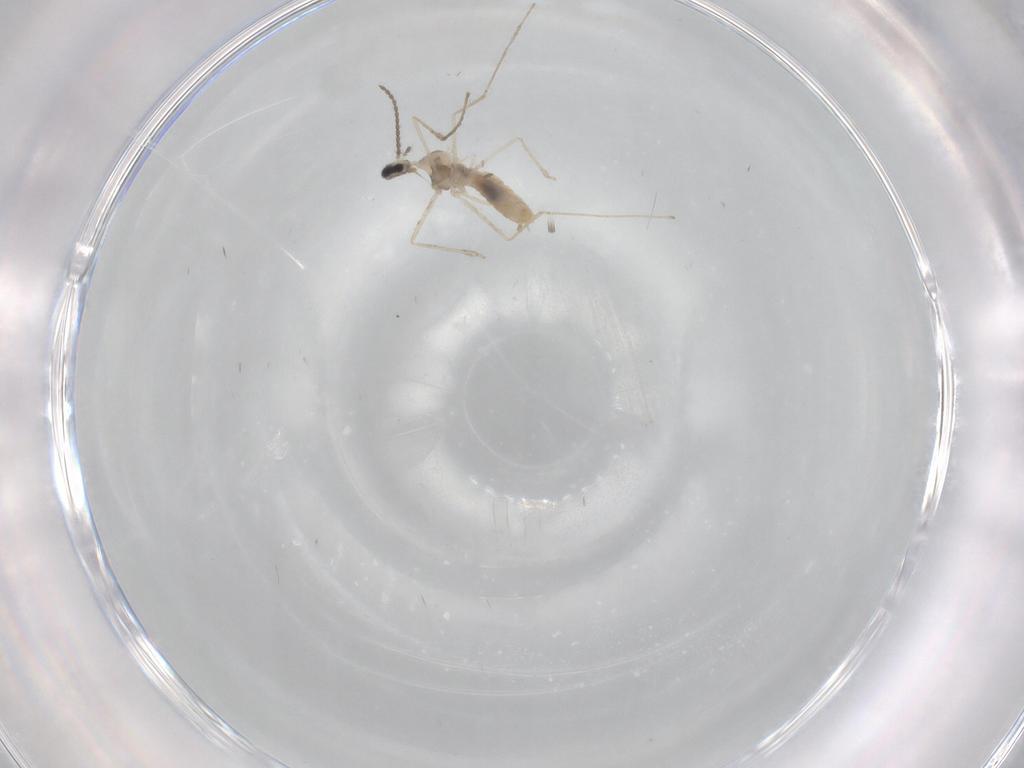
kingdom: Animalia
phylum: Arthropoda
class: Insecta
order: Diptera
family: Cecidomyiidae
